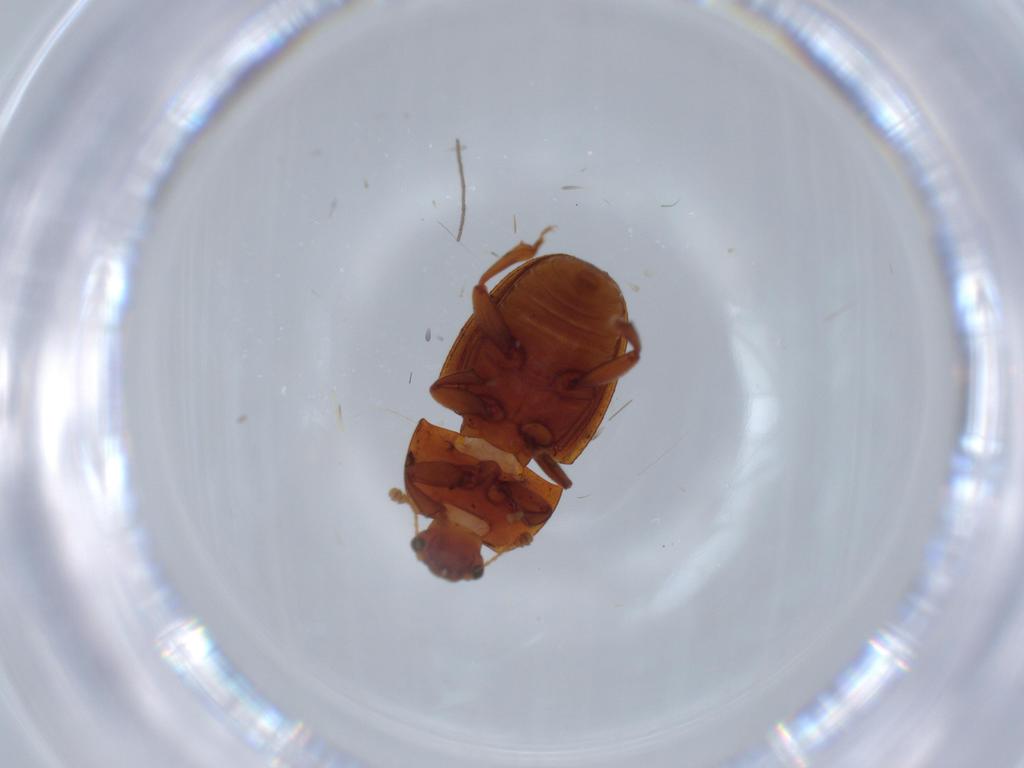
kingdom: Animalia
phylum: Arthropoda
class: Insecta
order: Coleoptera
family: Nitidulidae
